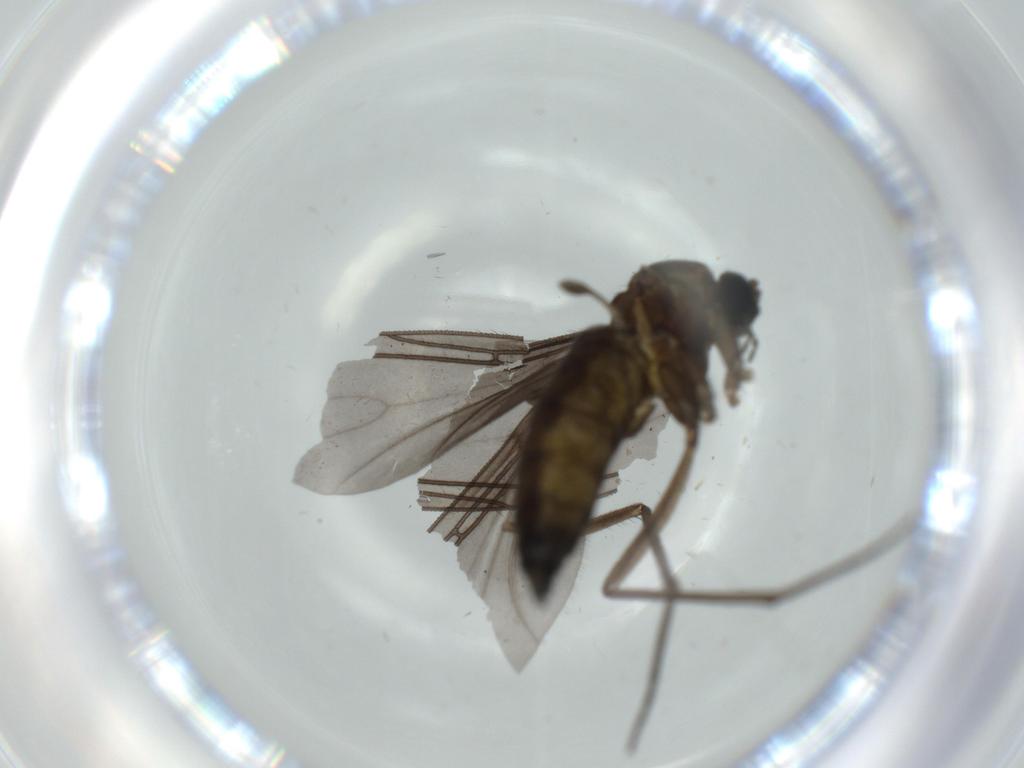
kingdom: Animalia
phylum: Arthropoda
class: Insecta
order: Diptera
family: Sciaridae
